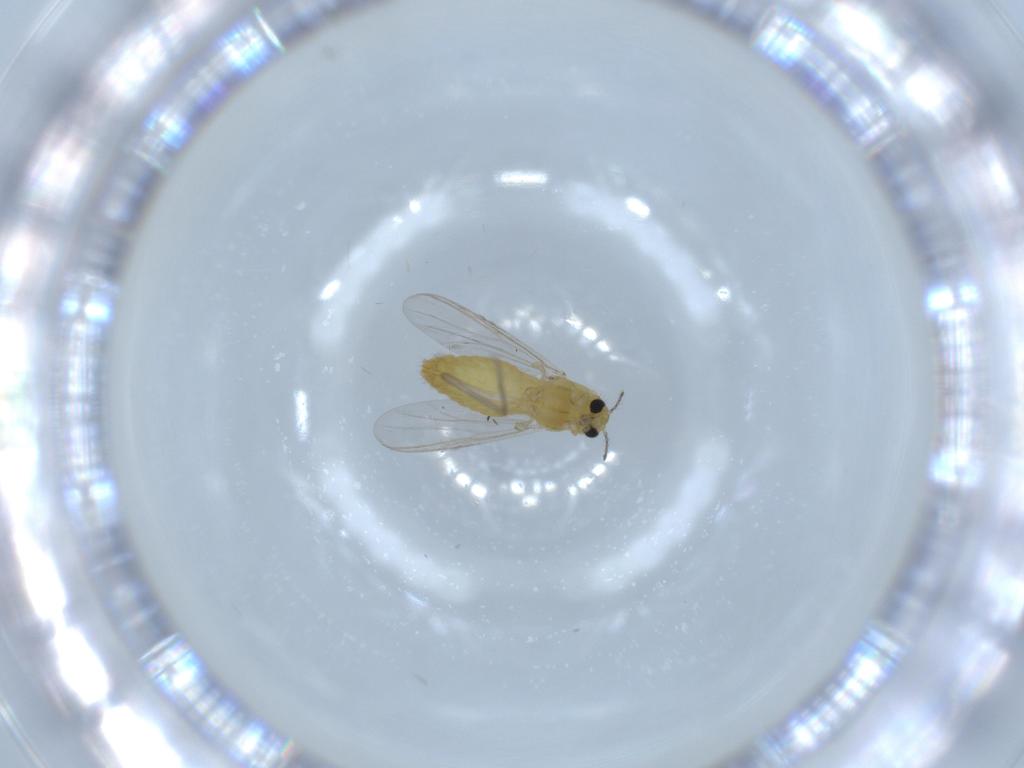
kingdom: Animalia
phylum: Arthropoda
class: Insecta
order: Diptera
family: Chironomidae
